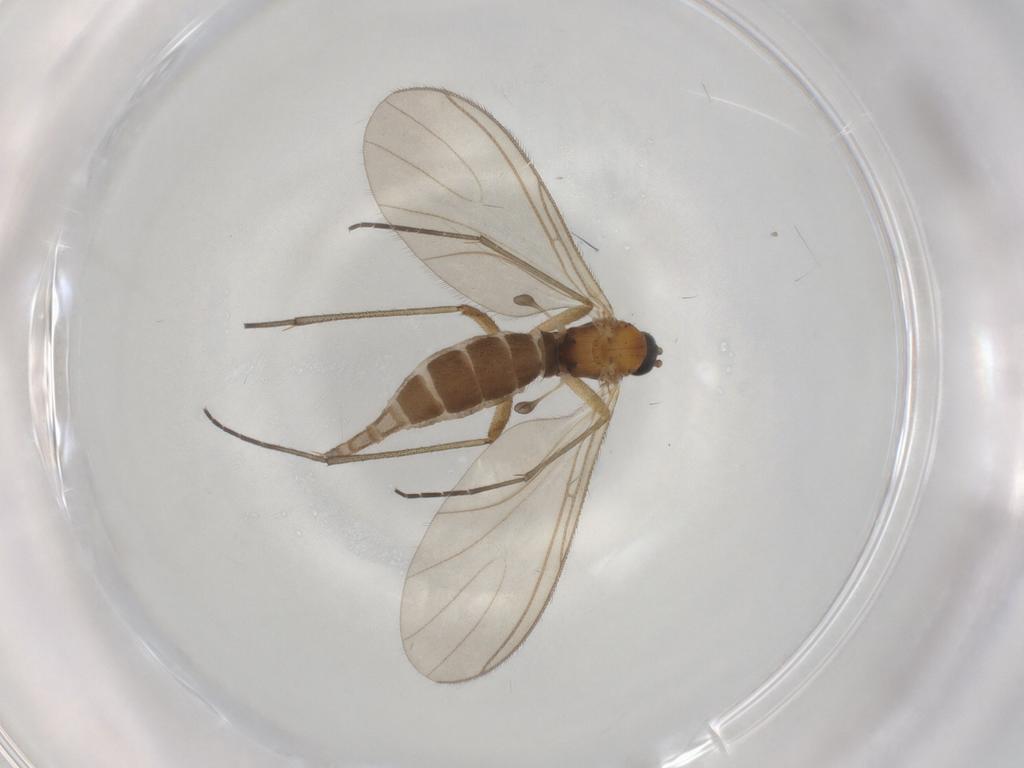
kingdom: Animalia
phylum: Arthropoda
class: Insecta
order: Diptera
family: Sciaridae
